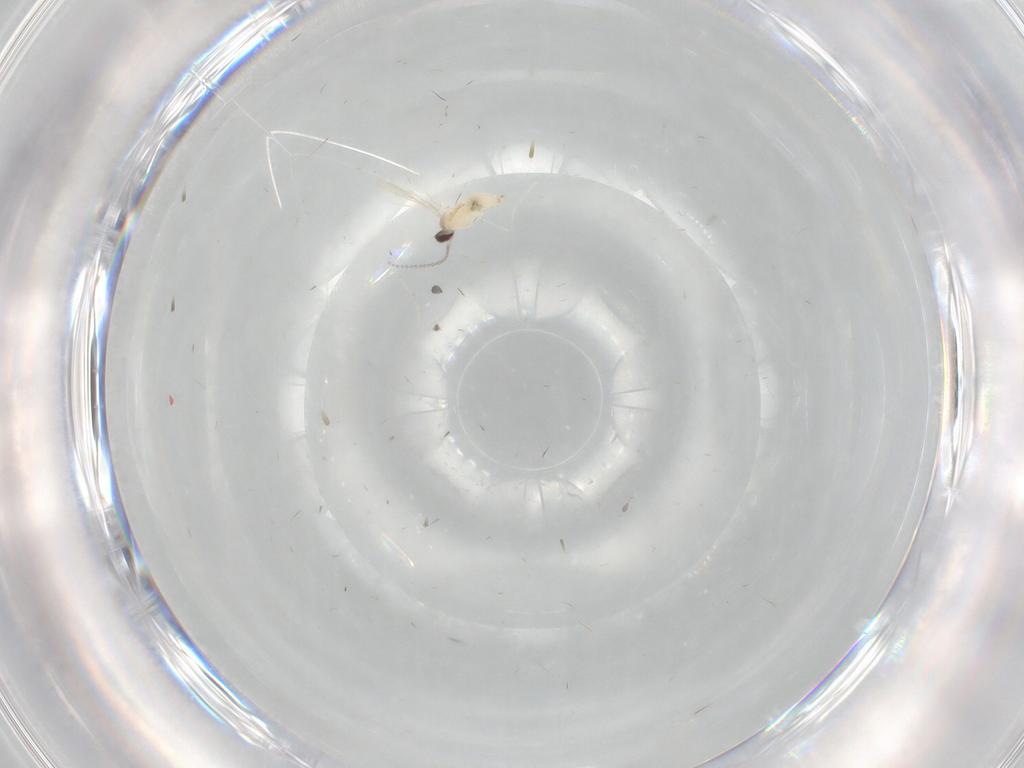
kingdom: Animalia
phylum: Arthropoda
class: Insecta
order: Diptera
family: Cecidomyiidae
